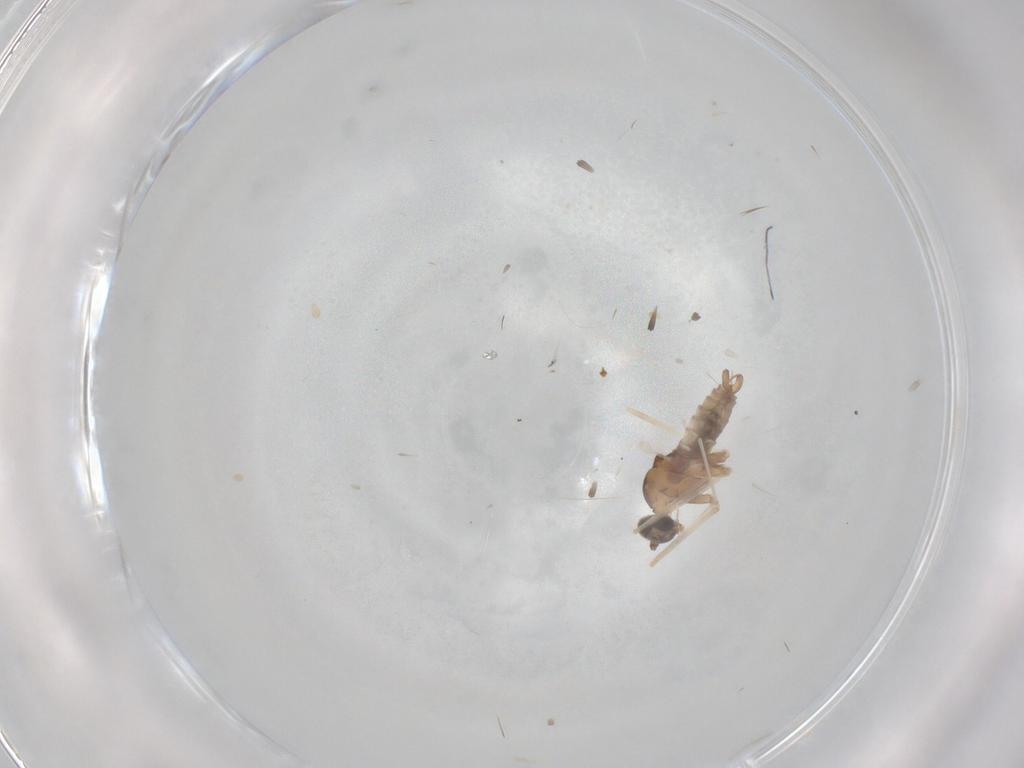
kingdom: Animalia
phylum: Arthropoda
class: Insecta
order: Diptera
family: Cecidomyiidae
